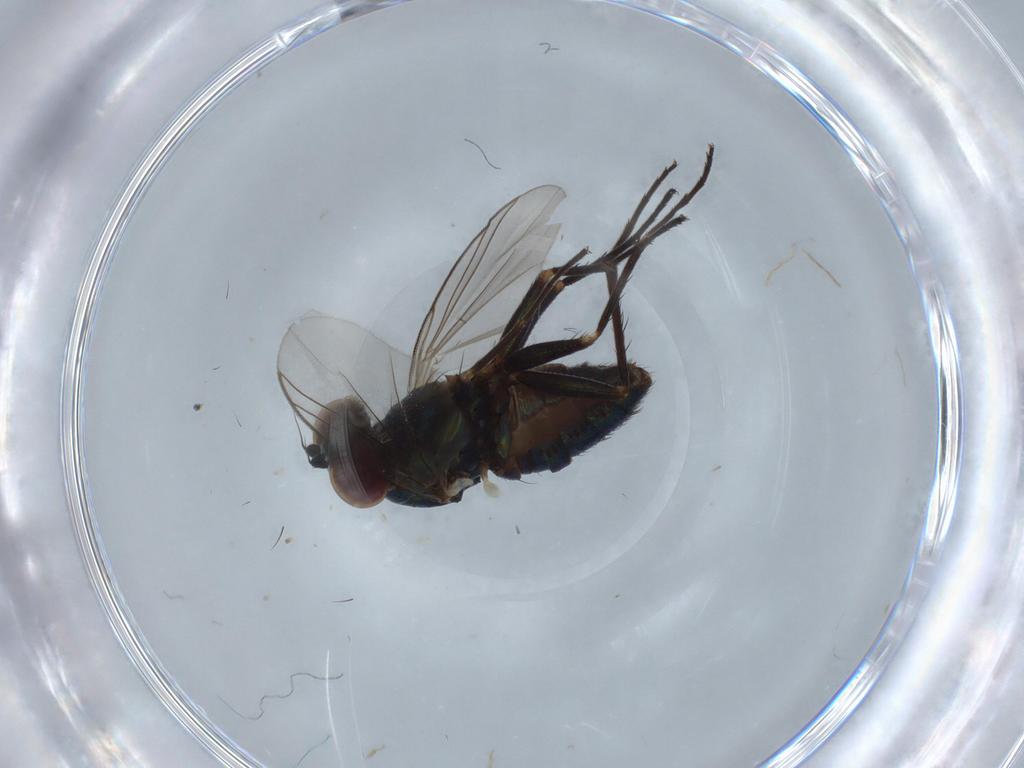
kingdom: Animalia
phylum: Arthropoda
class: Insecta
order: Diptera
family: Dolichopodidae
